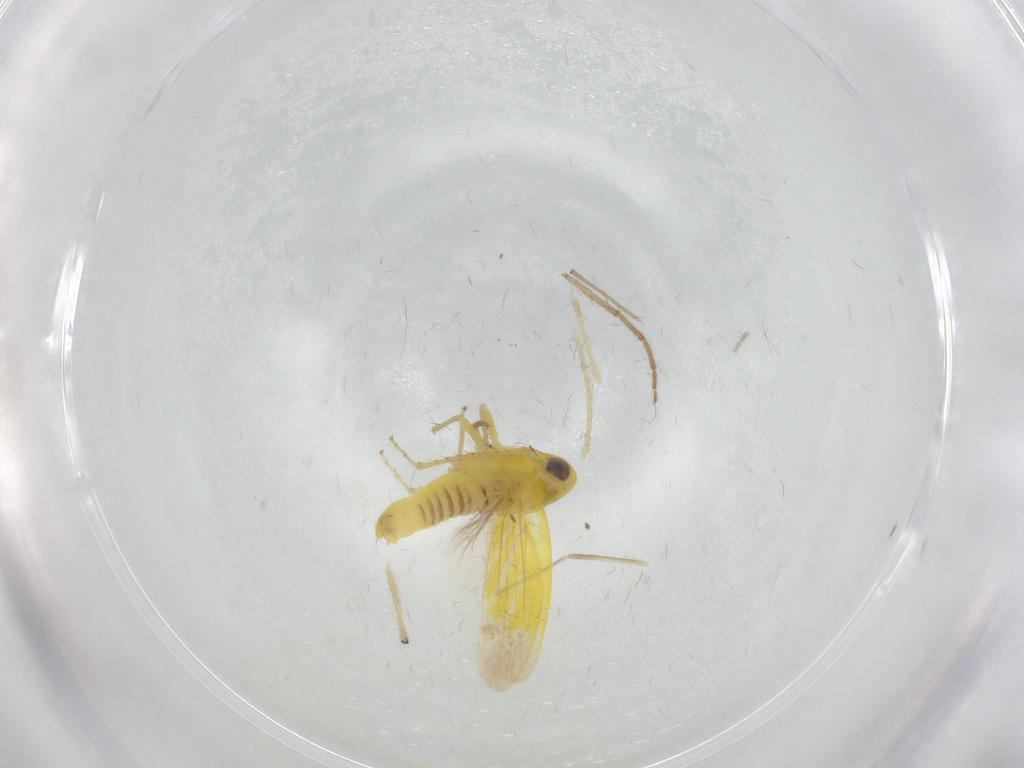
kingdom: Animalia
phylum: Arthropoda
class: Insecta
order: Hemiptera
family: Cicadellidae
